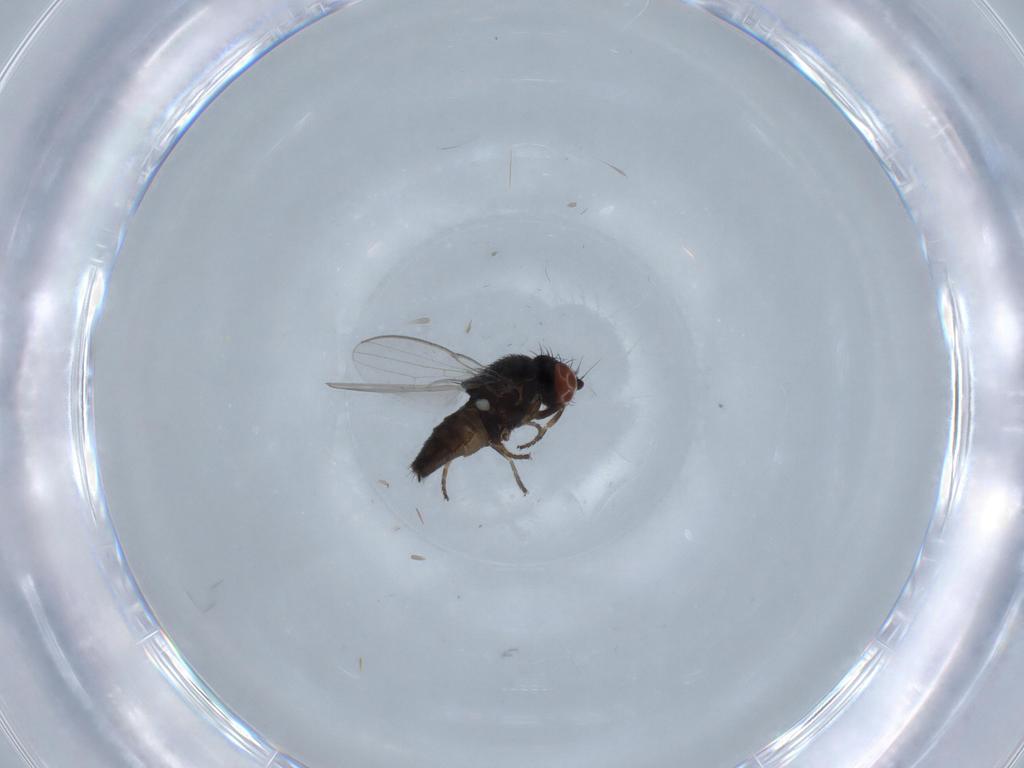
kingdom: Animalia
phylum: Arthropoda
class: Insecta
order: Diptera
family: Milichiidae
